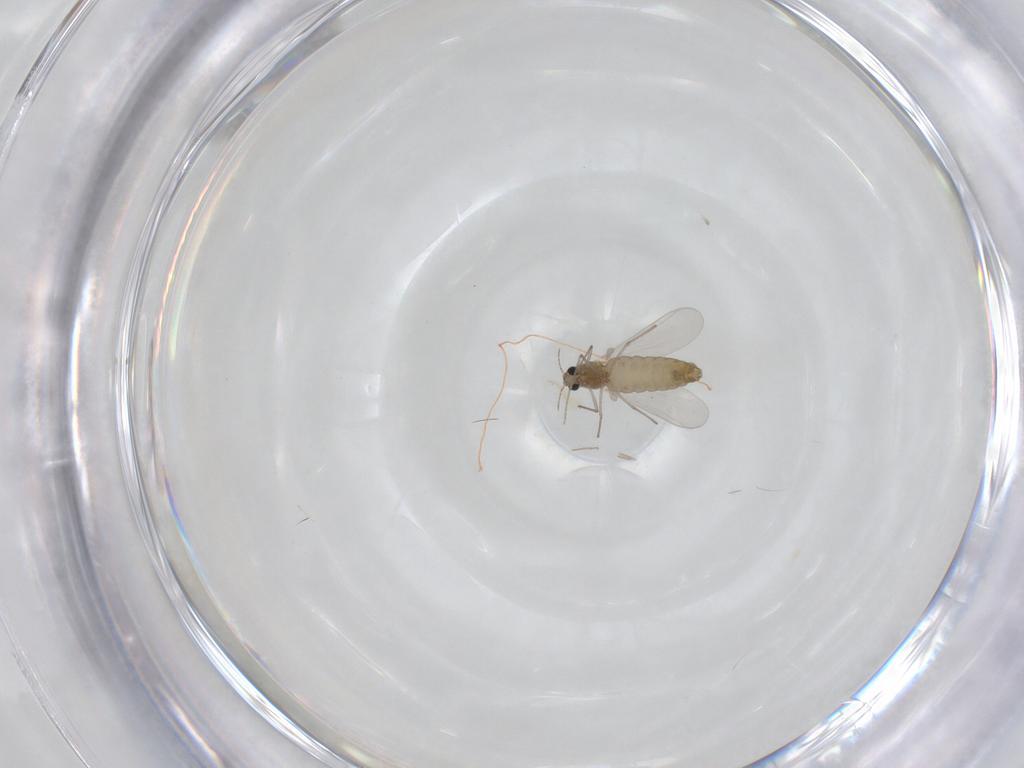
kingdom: Animalia
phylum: Arthropoda
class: Insecta
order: Diptera
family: Chironomidae
